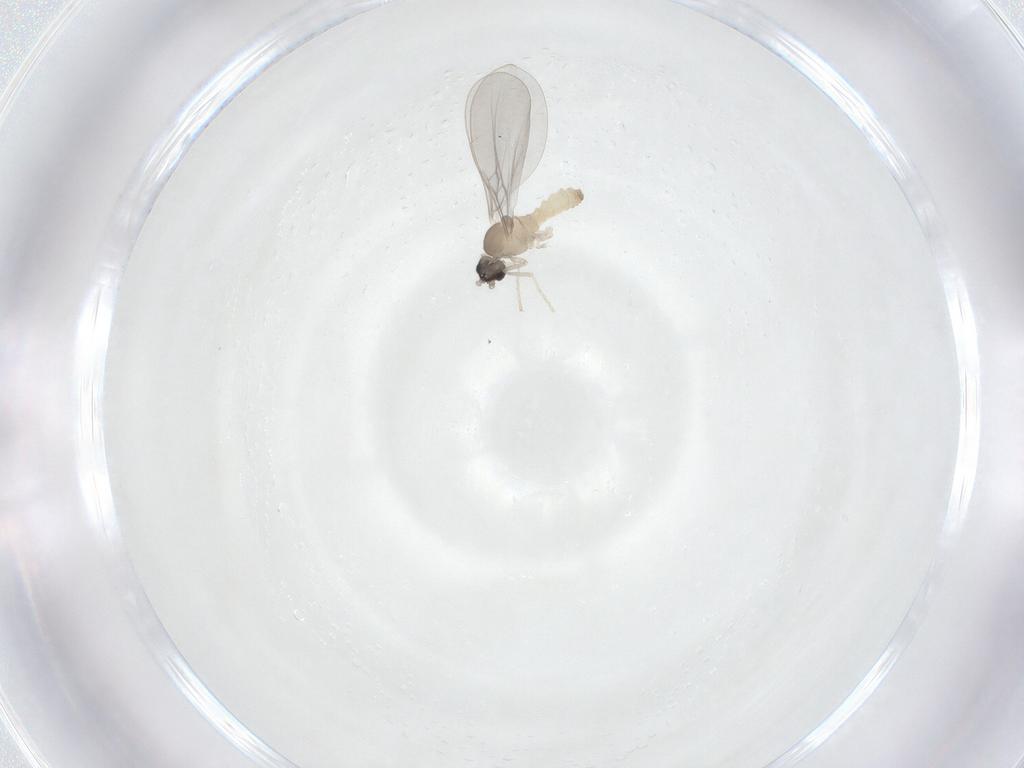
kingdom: Animalia
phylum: Arthropoda
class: Insecta
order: Diptera
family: Cecidomyiidae
